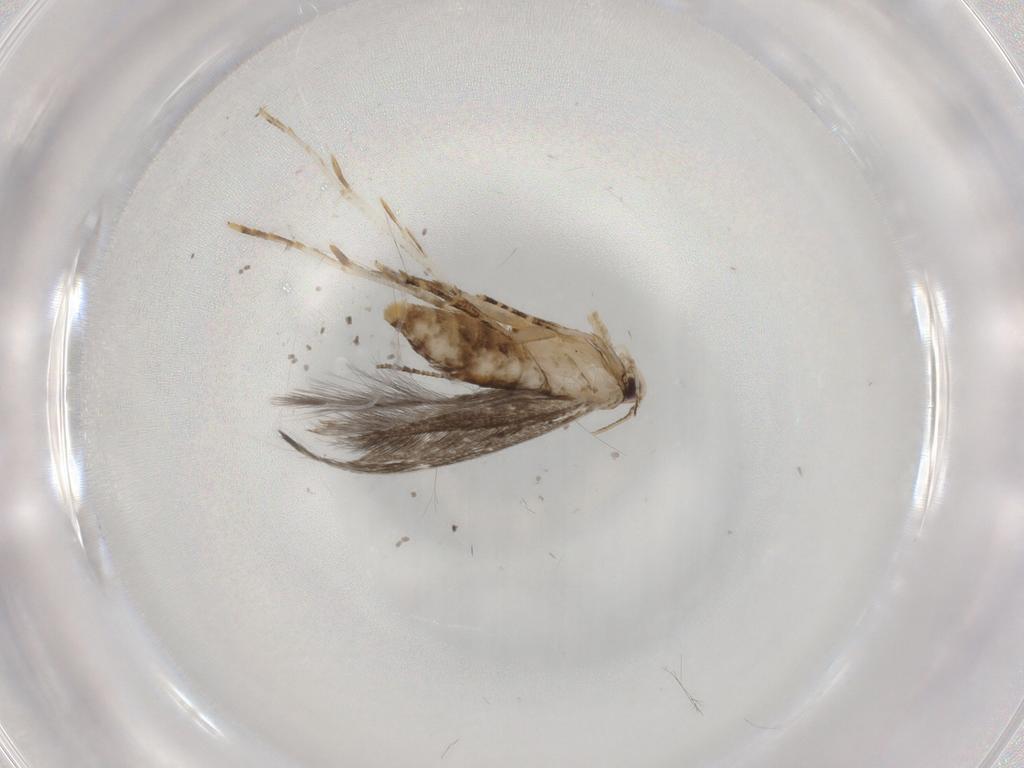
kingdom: Animalia
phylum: Arthropoda
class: Insecta
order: Lepidoptera
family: Cosmopterigidae
